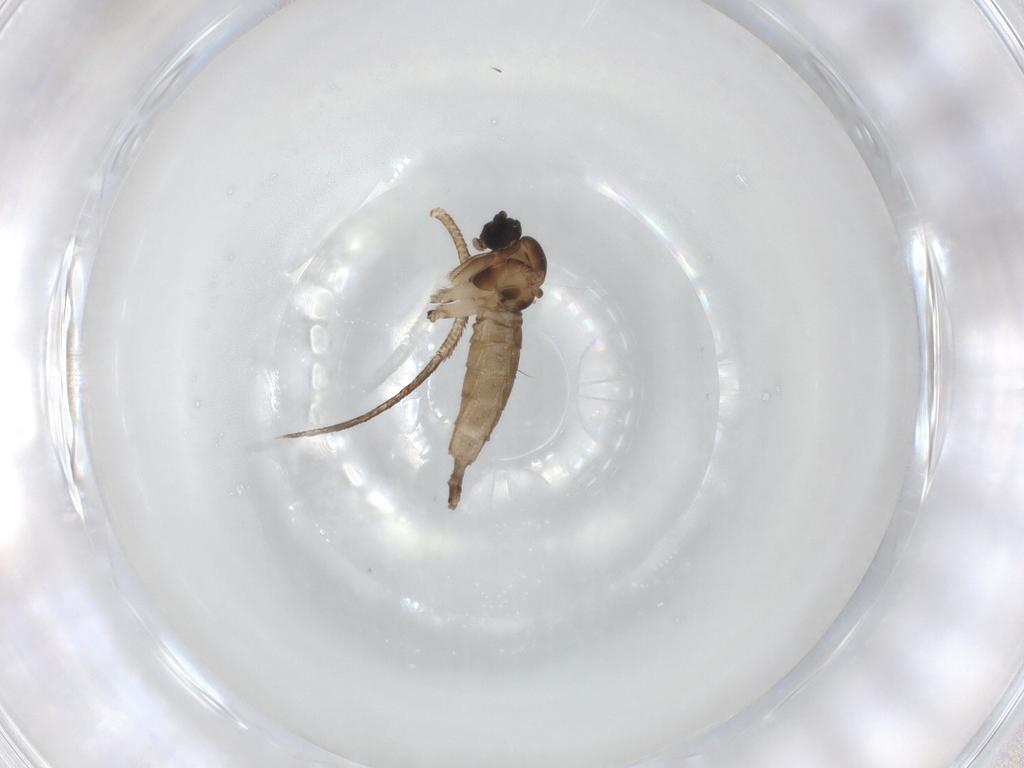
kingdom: Animalia
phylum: Arthropoda
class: Insecta
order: Diptera
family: Sciaridae
